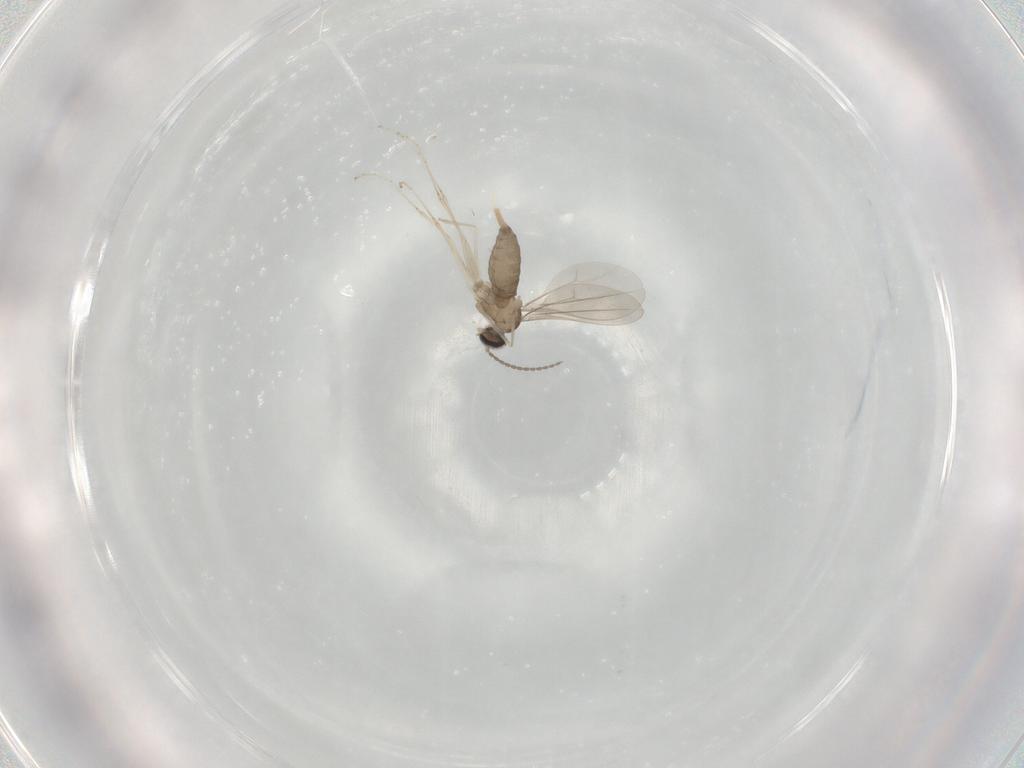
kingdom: Animalia
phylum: Arthropoda
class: Insecta
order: Diptera
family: Cecidomyiidae
